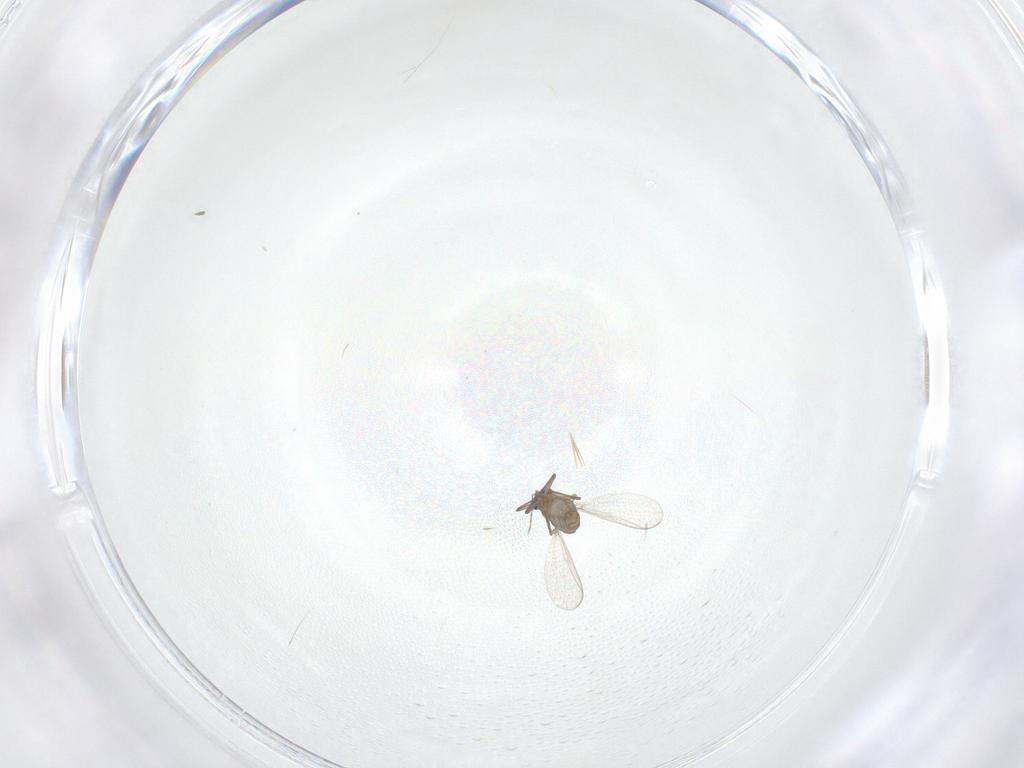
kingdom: Animalia
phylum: Arthropoda
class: Insecta
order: Diptera
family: Chironomidae
